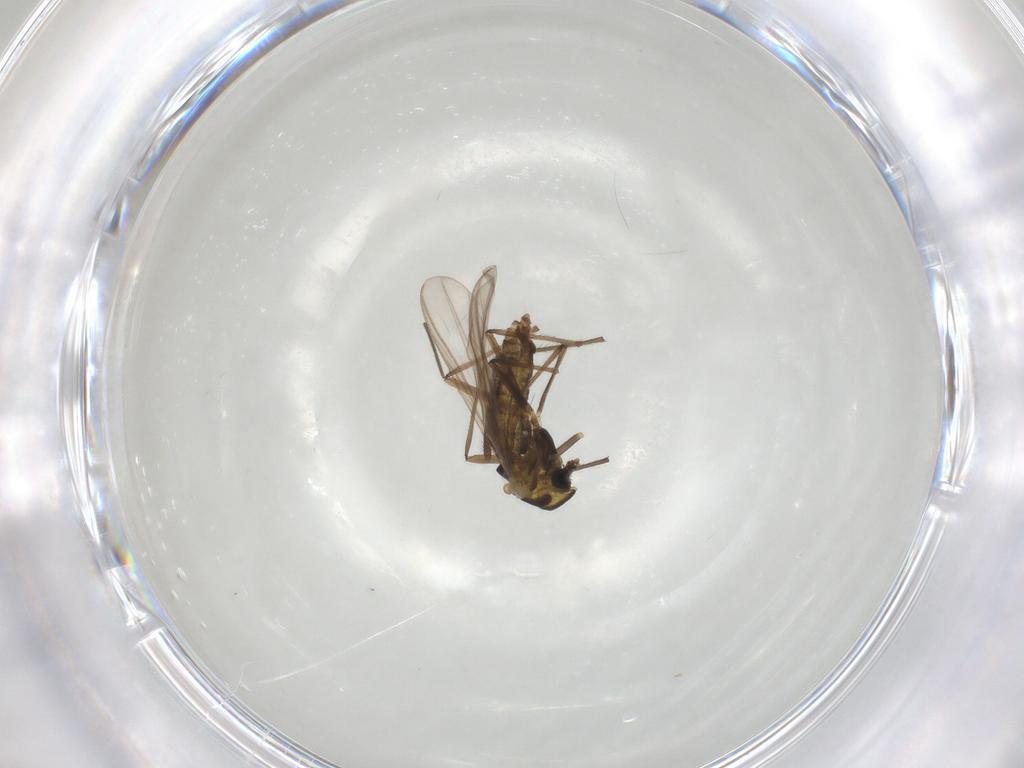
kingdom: Animalia
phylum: Arthropoda
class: Insecta
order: Diptera
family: Chironomidae
